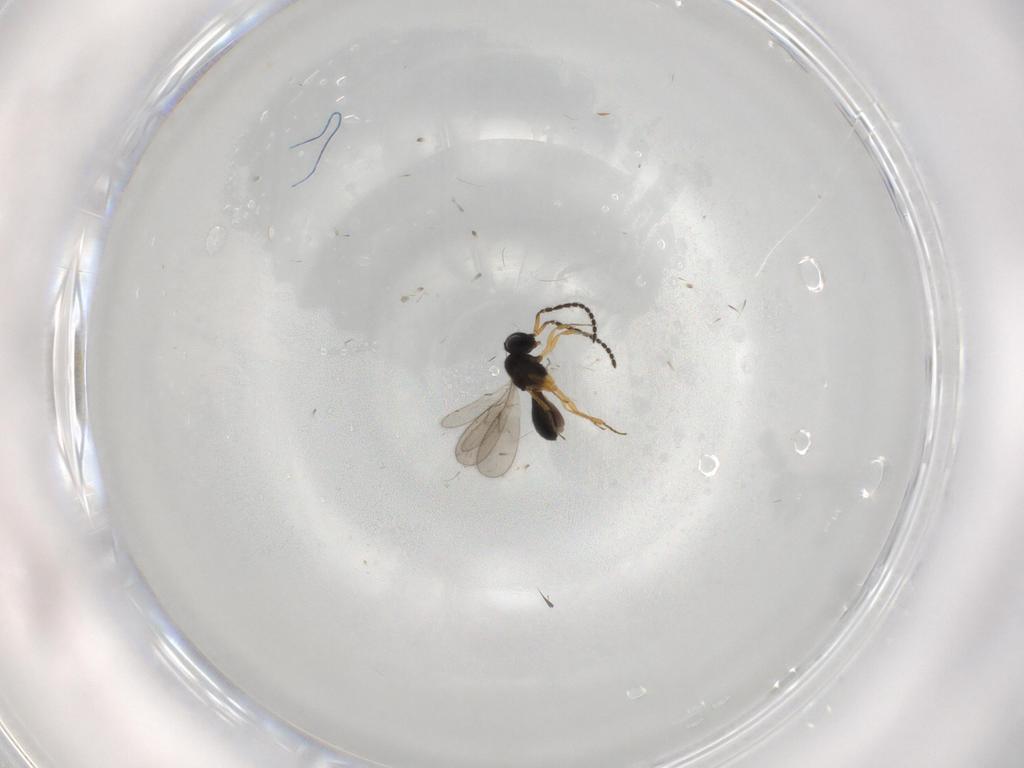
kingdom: Animalia
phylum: Arthropoda
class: Insecta
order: Hymenoptera
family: Scelionidae
